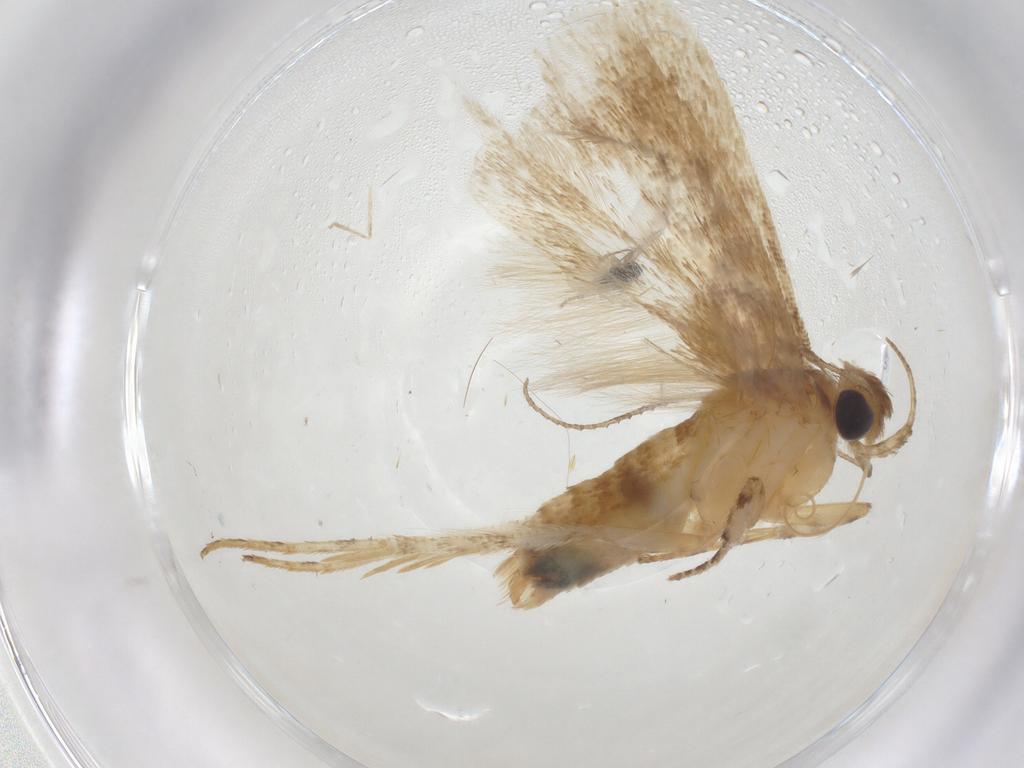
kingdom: Animalia
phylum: Arthropoda
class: Insecta
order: Lepidoptera
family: Gelechiidae
